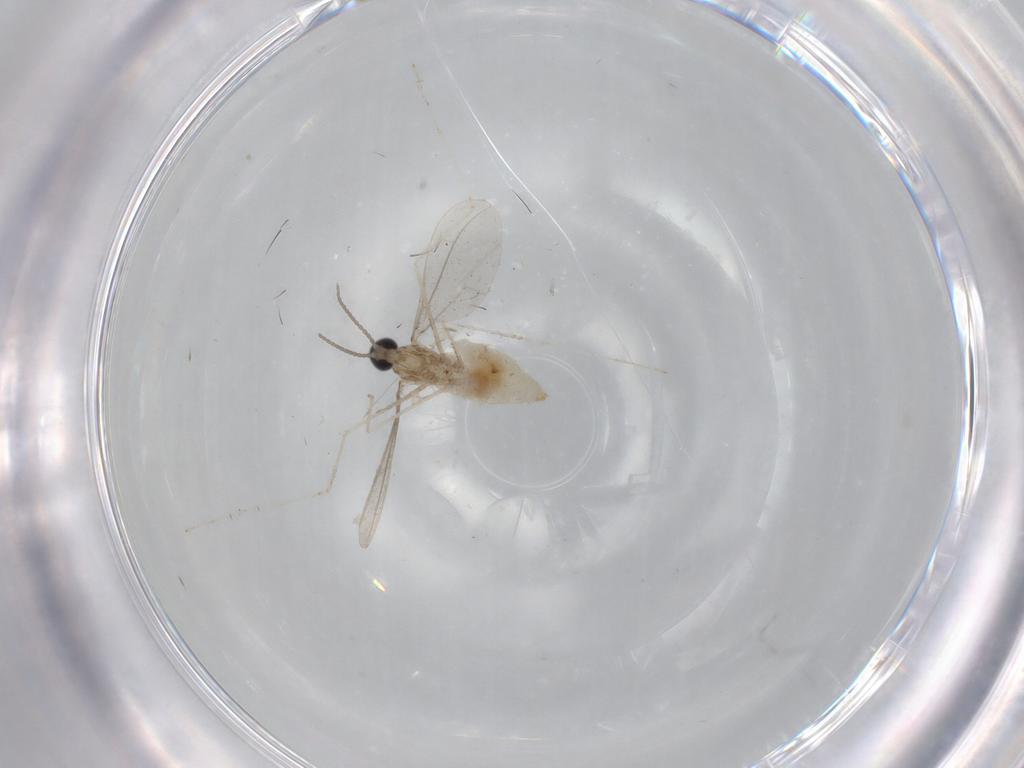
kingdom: Animalia
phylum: Arthropoda
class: Insecta
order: Diptera
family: Cecidomyiidae
